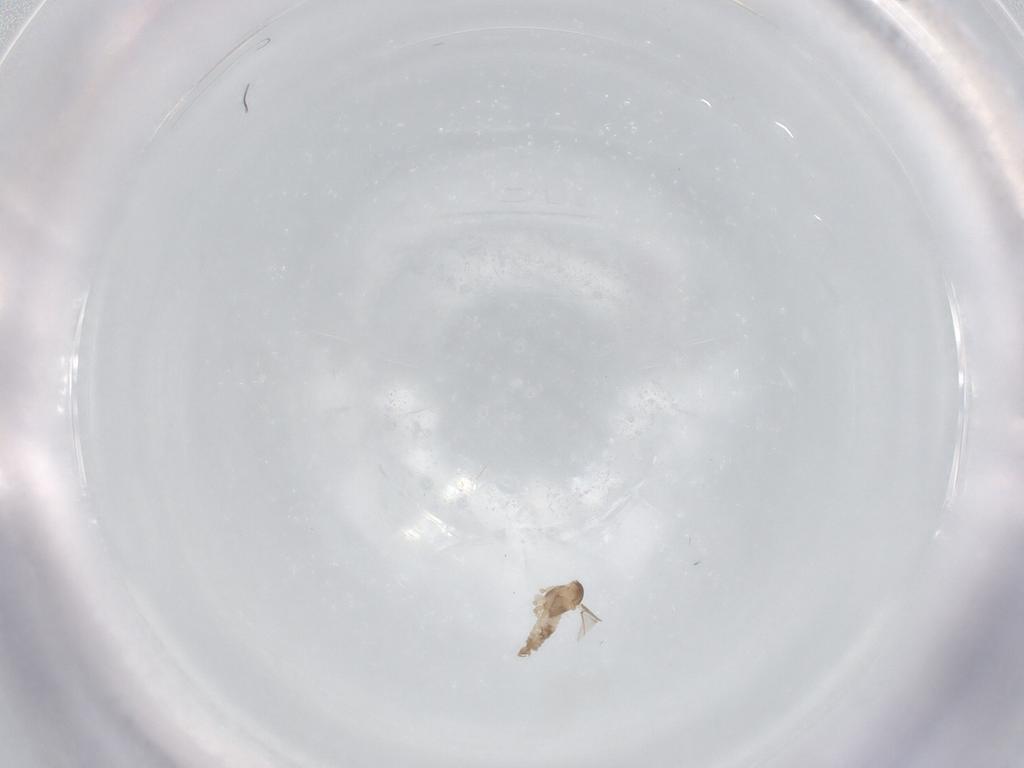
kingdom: Animalia
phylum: Arthropoda
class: Insecta
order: Diptera
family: Cecidomyiidae
